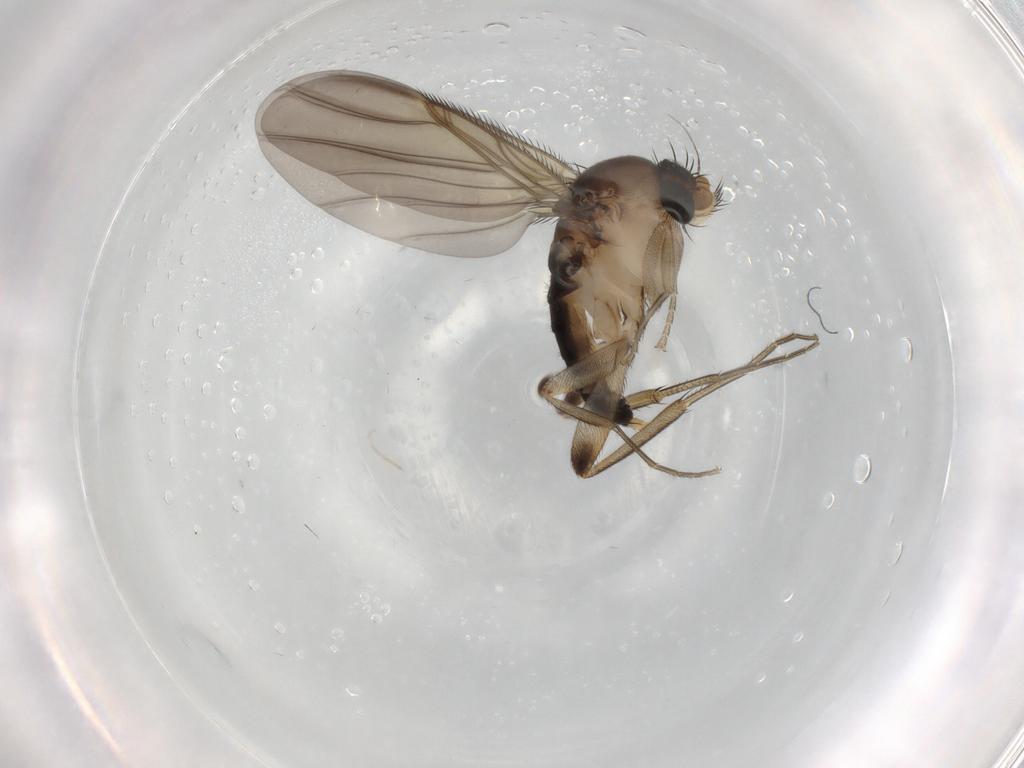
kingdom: Animalia
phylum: Arthropoda
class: Insecta
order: Diptera
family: Phoridae
